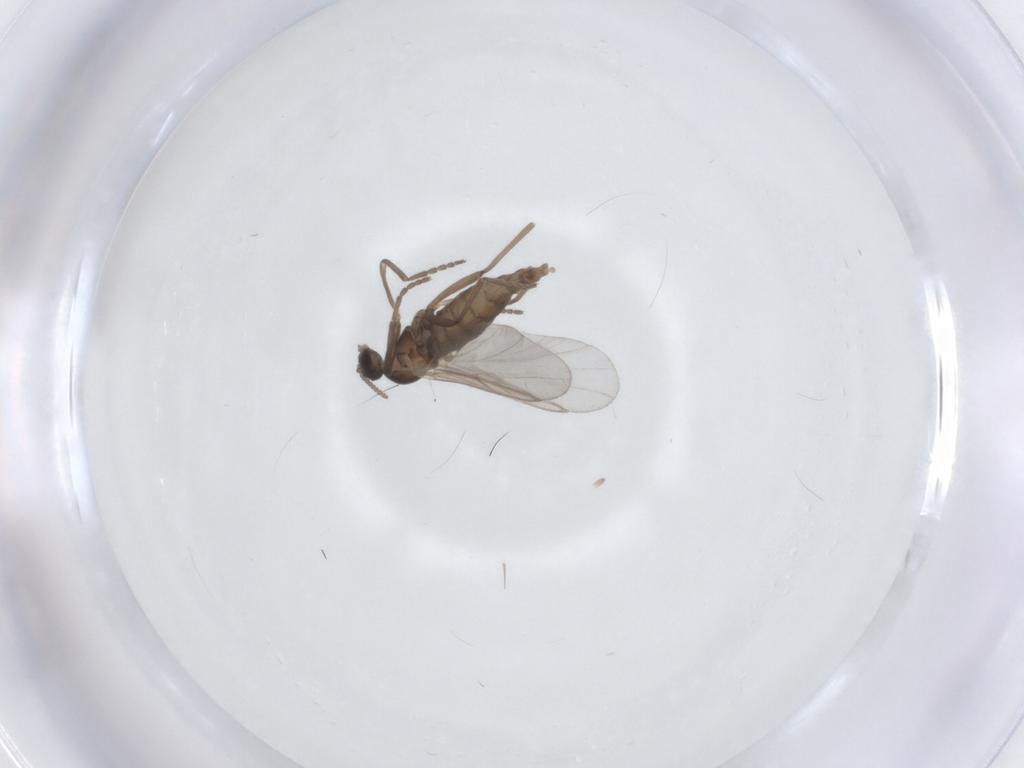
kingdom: Animalia
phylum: Arthropoda
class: Insecta
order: Diptera
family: Cecidomyiidae
